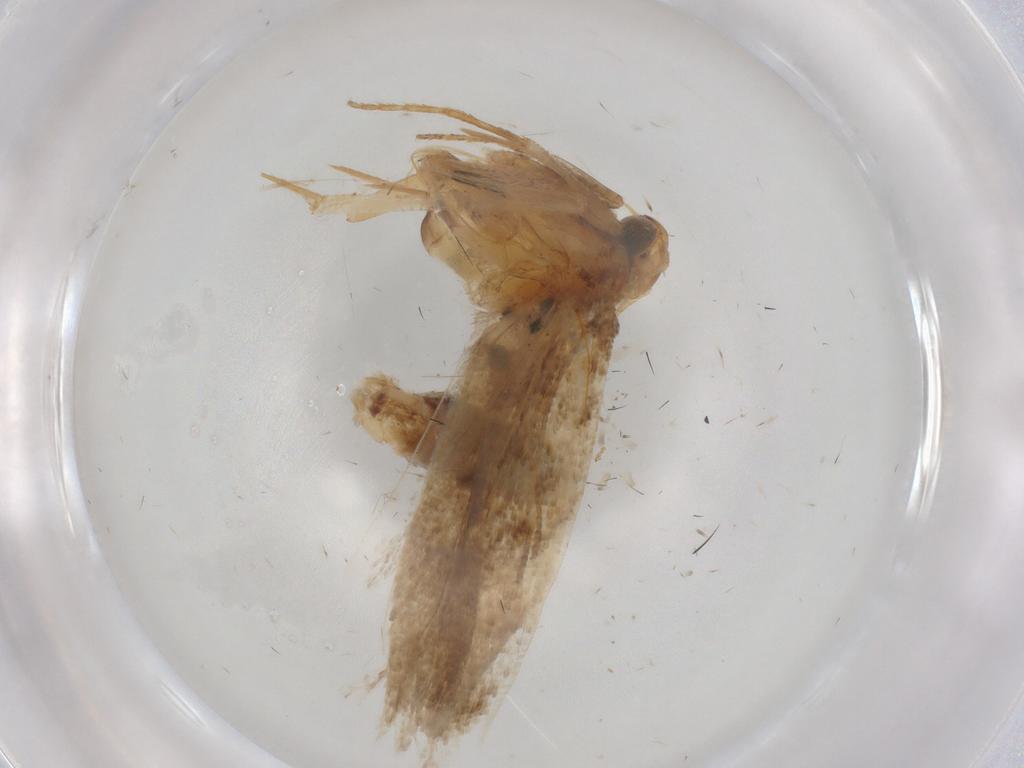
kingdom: Animalia
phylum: Arthropoda
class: Insecta
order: Lepidoptera
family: Gelechiidae
